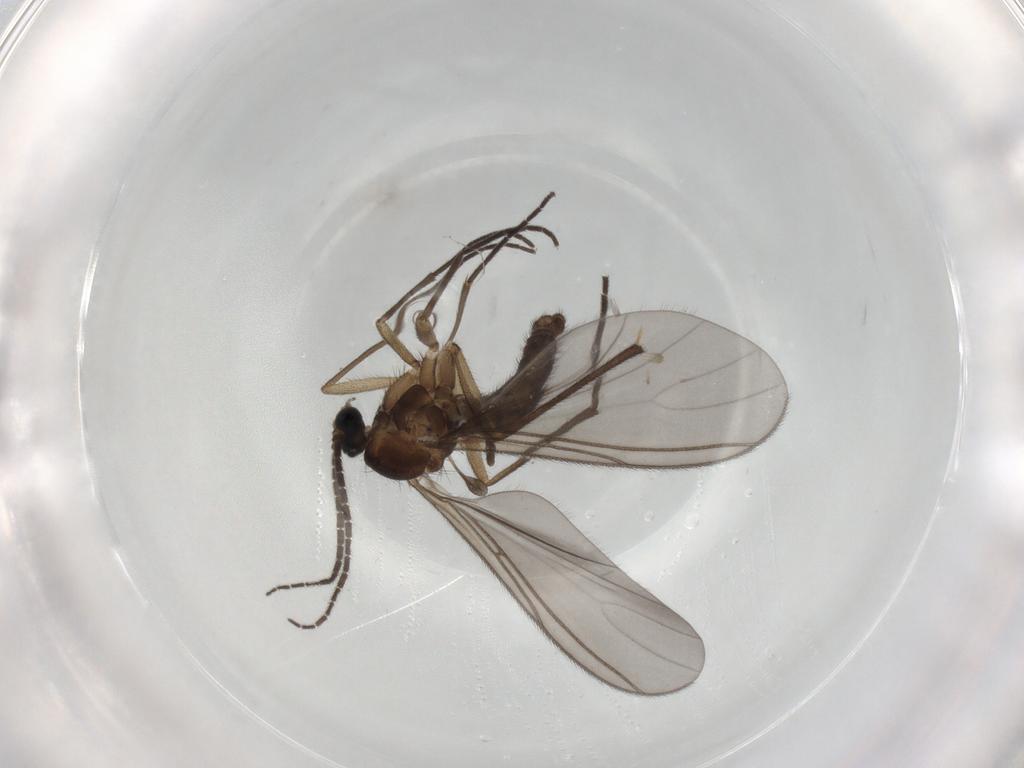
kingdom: Animalia
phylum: Arthropoda
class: Insecta
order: Diptera
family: Sciaridae
